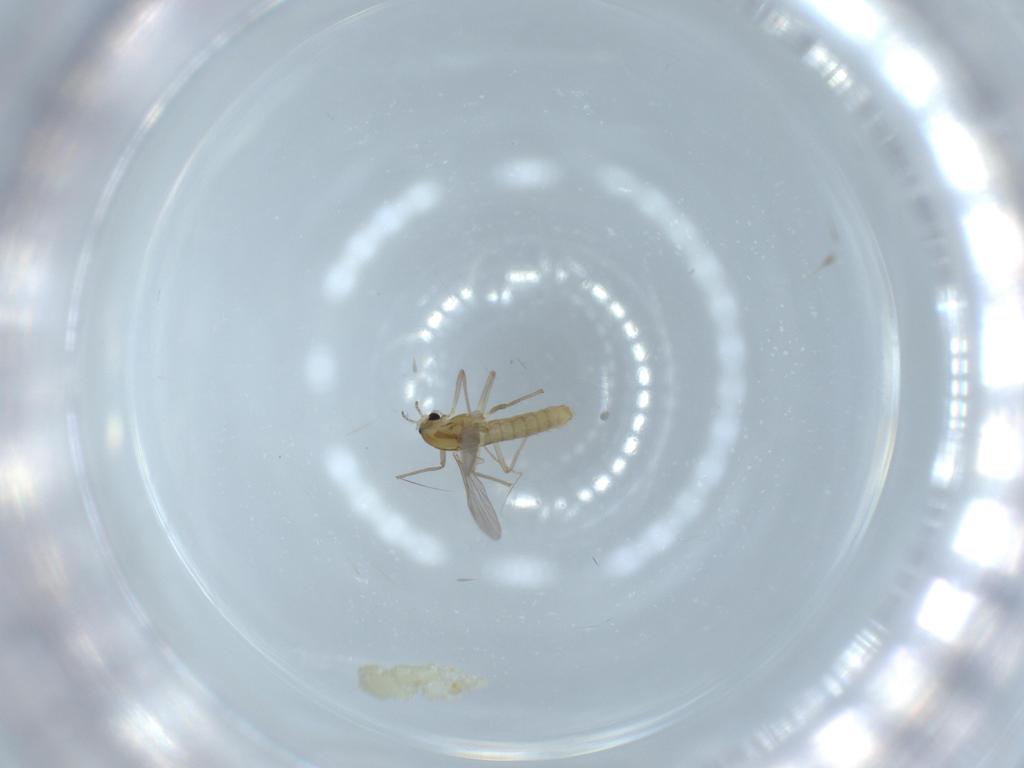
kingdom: Animalia
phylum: Arthropoda
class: Insecta
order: Diptera
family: Chironomidae
